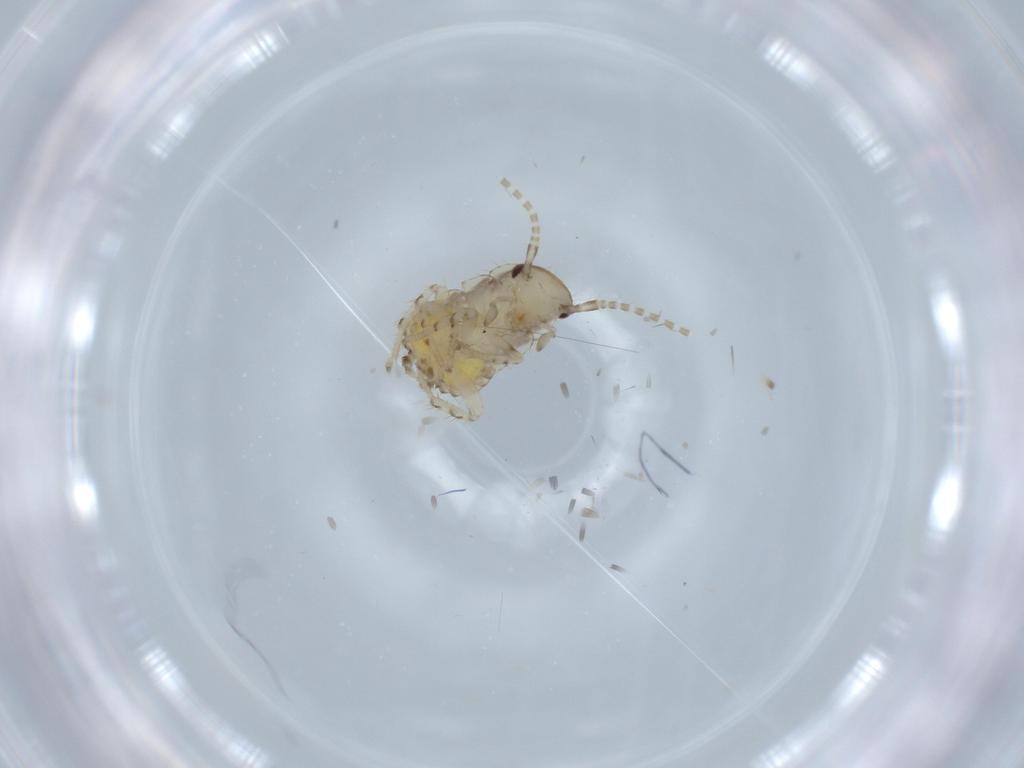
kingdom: Animalia
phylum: Arthropoda
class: Insecta
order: Blattodea
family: Ectobiidae
